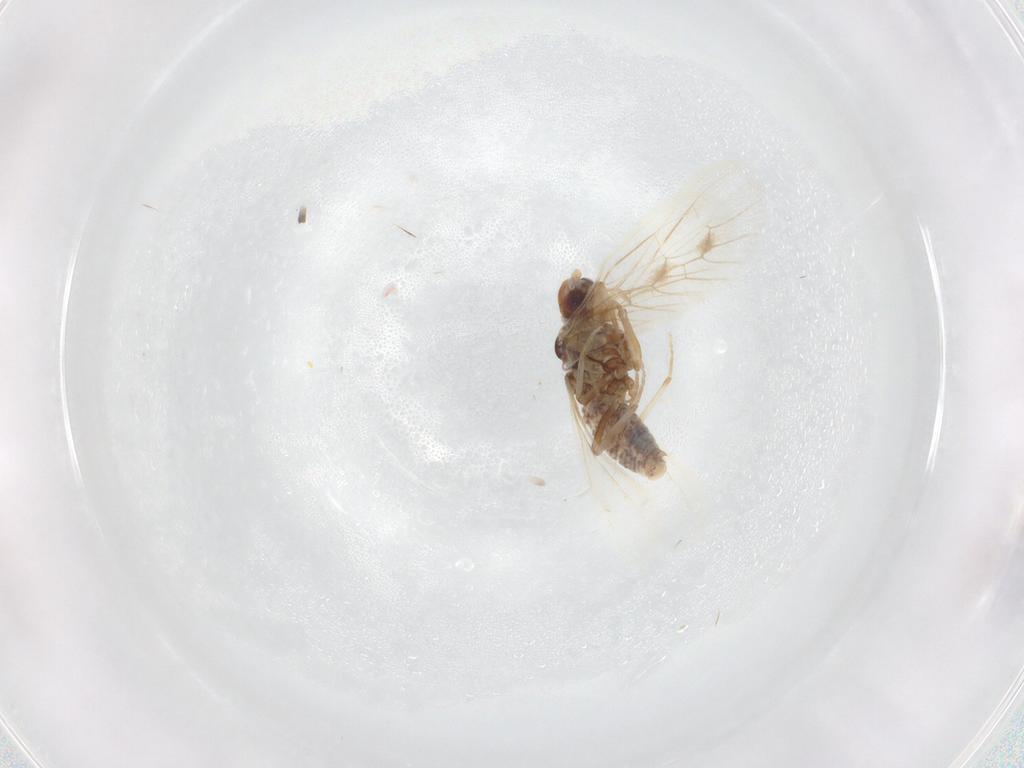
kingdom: Animalia
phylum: Arthropoda
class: Insecta
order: Neuroptera
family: Coniopterygidae
